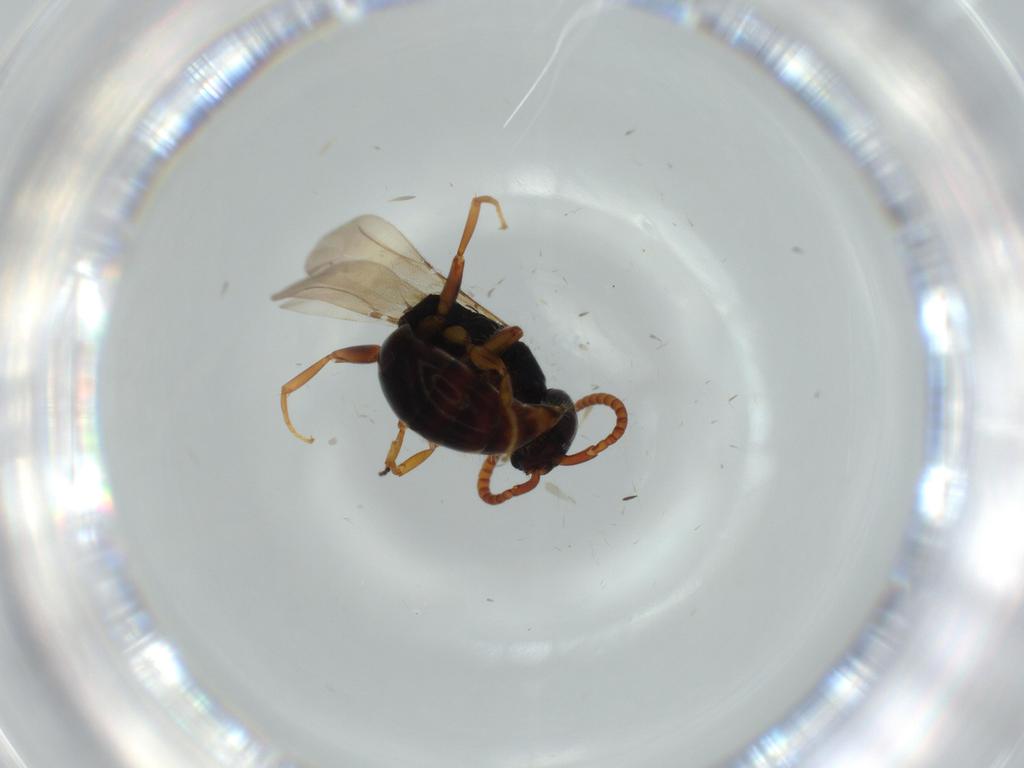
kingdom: Animalia
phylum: Arthropoda
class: Insecta
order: Hymenoptera
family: Bethylidae
